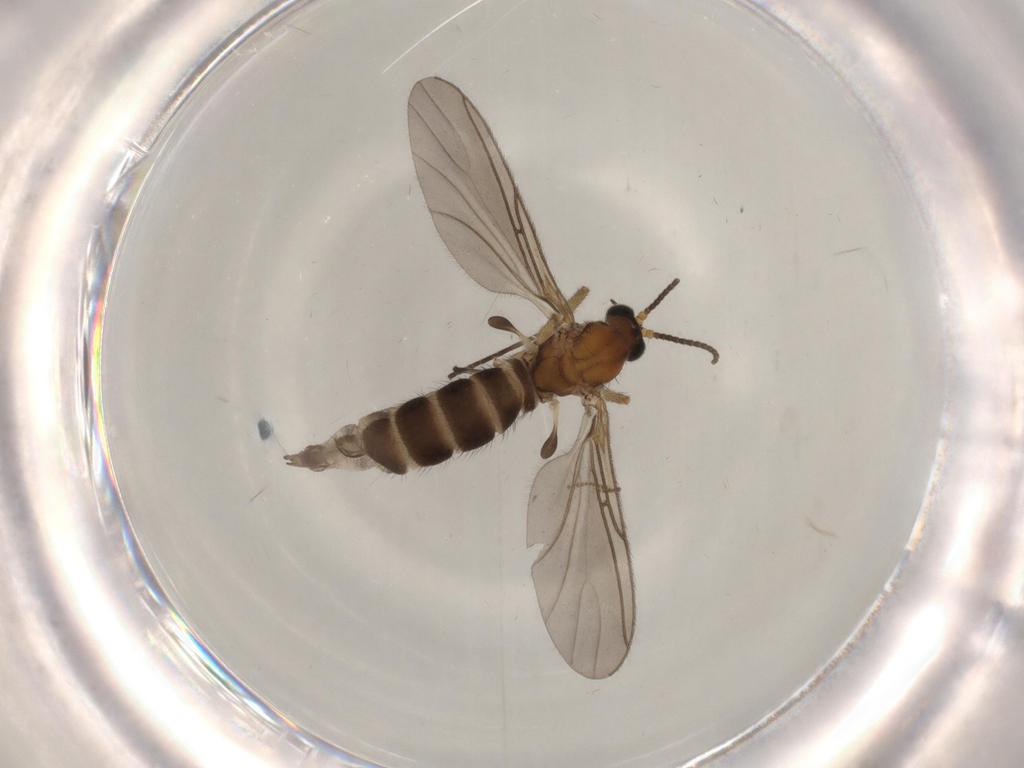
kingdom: Animalia
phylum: Arthropoda
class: Insecta
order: Diptera
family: Sciaridae
